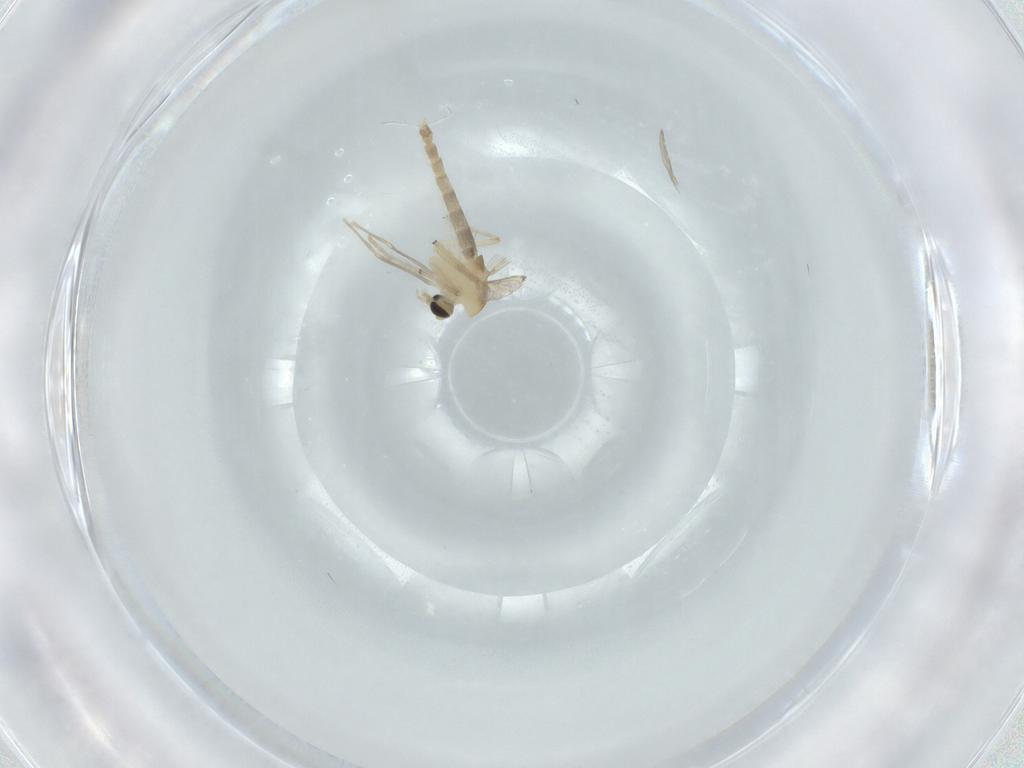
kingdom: Animalia
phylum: Arthropoda
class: Insecta
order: Diptera
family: Chironomidae
